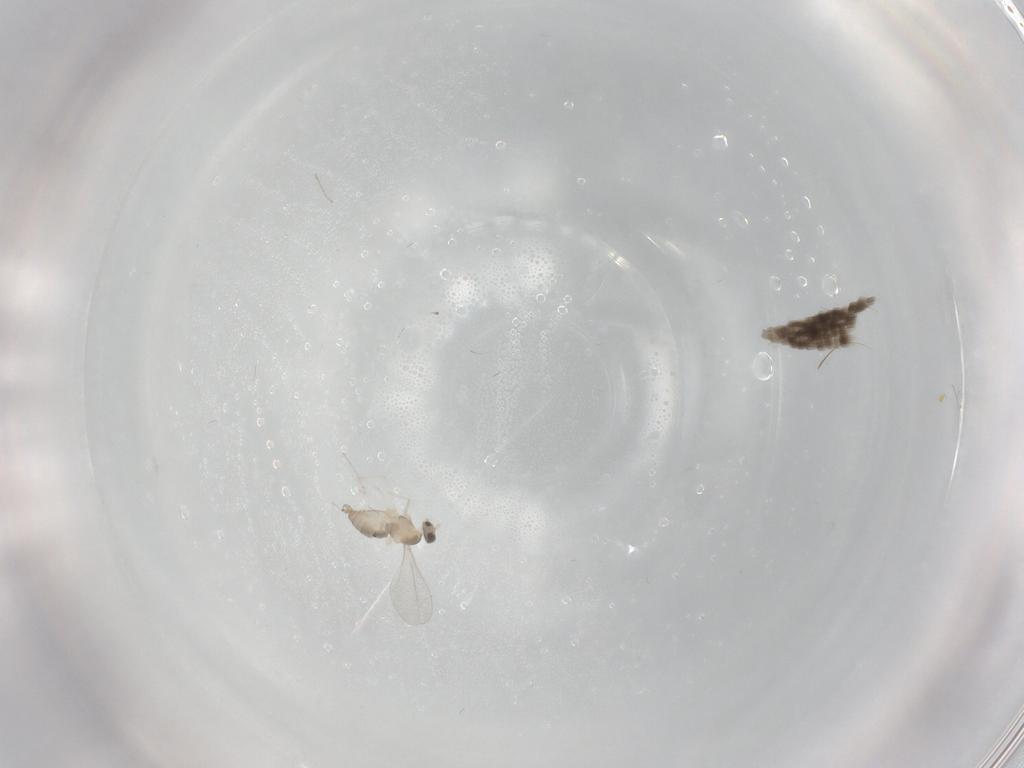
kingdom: Animalia
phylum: Arthropoda
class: Insecta
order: Diptera
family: Cecidomyiidae
